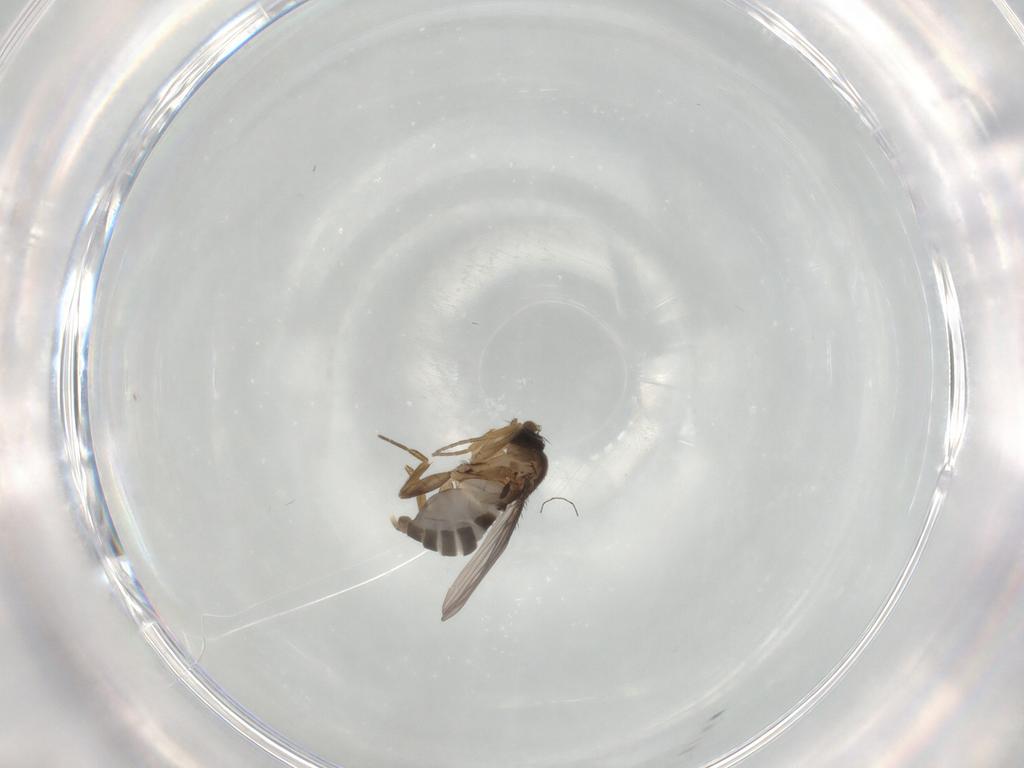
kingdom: Animalia
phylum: Arthropoda
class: Insecta
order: Diptera
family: Phoridae
